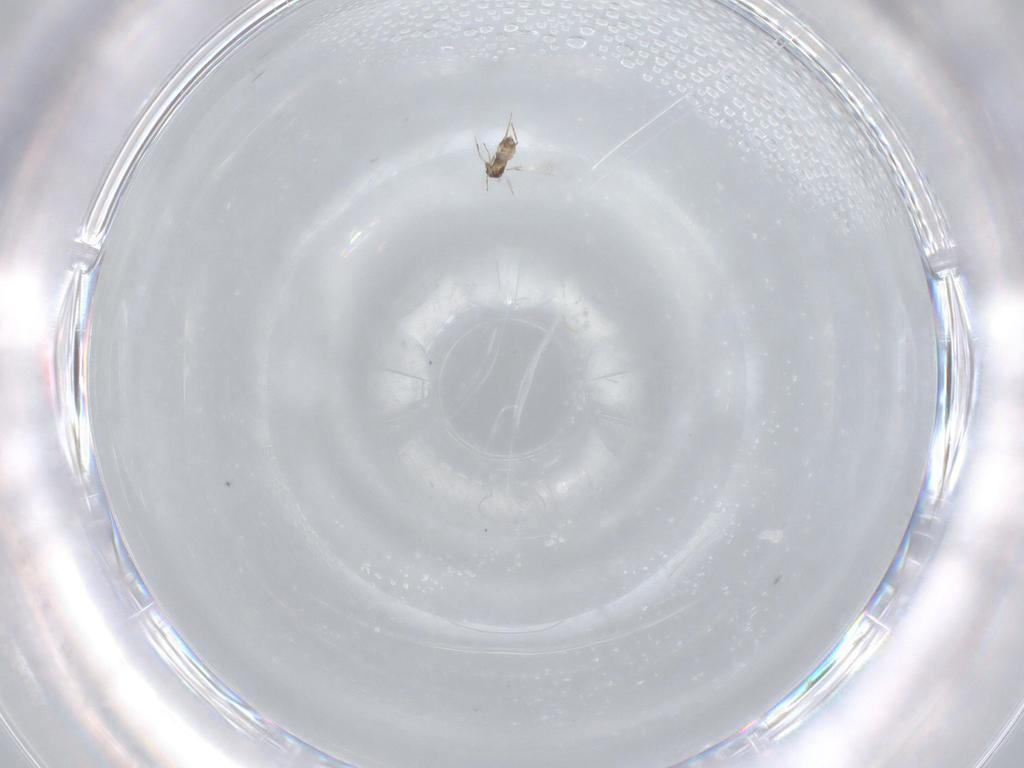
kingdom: Animalia
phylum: Arthropoda
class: Insecta
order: Hymenoptera
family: Mymaridae
